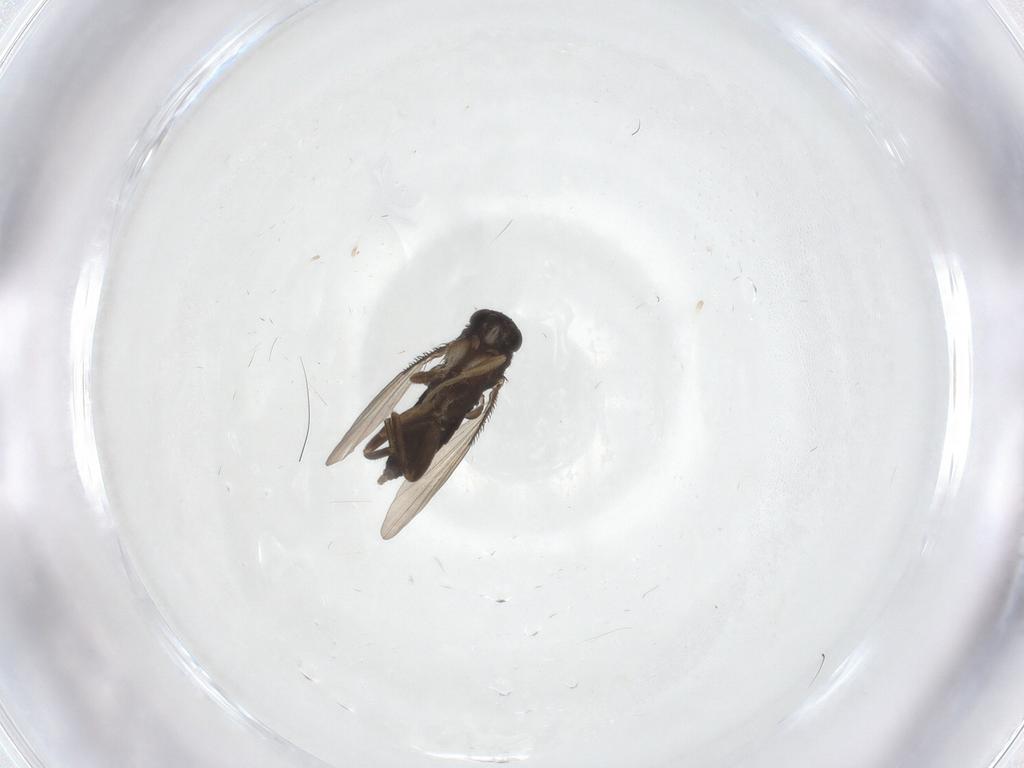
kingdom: Animalia
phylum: Arthropoda
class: Insecta
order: Diptera
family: Phoridae
